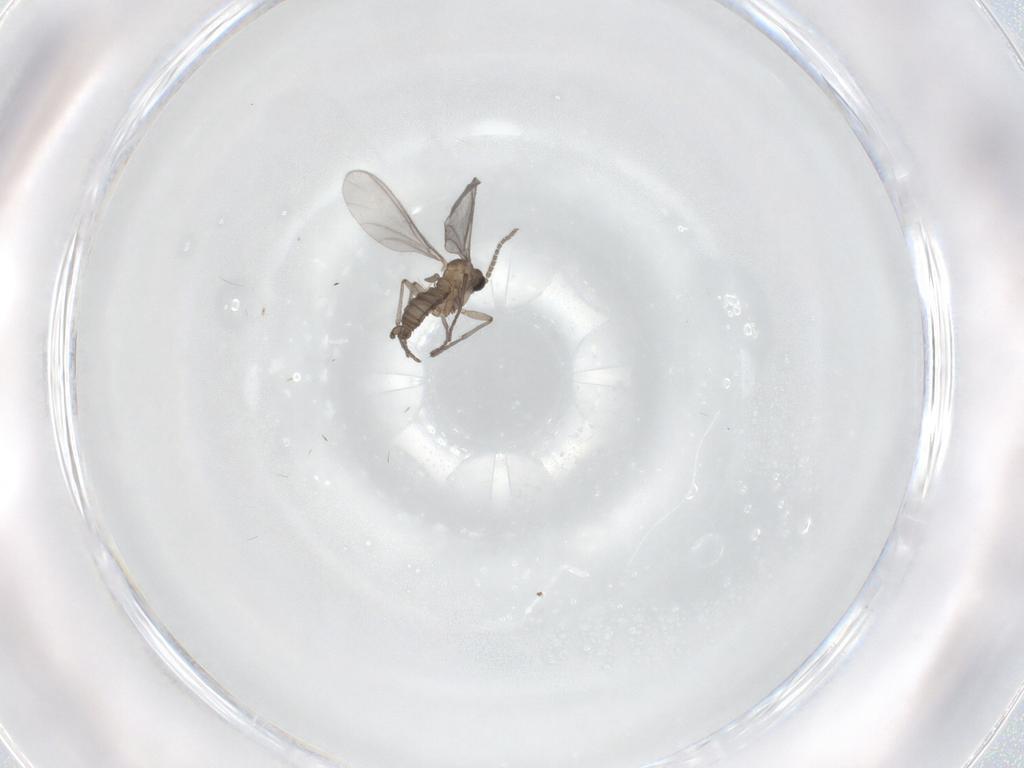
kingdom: Animalia
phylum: Arthropoda
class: Insecta
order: Diptera
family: Sciaridae
